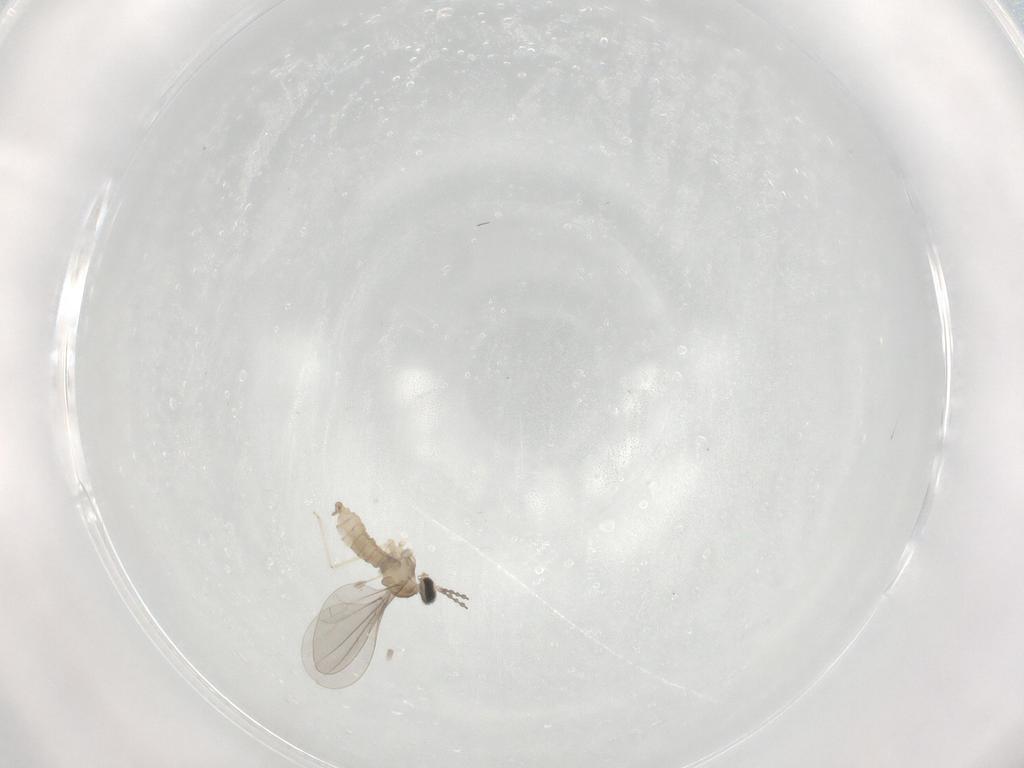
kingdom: Animalia
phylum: Arthropoda
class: Insecta
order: Diptera
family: Cecidomyiidae
